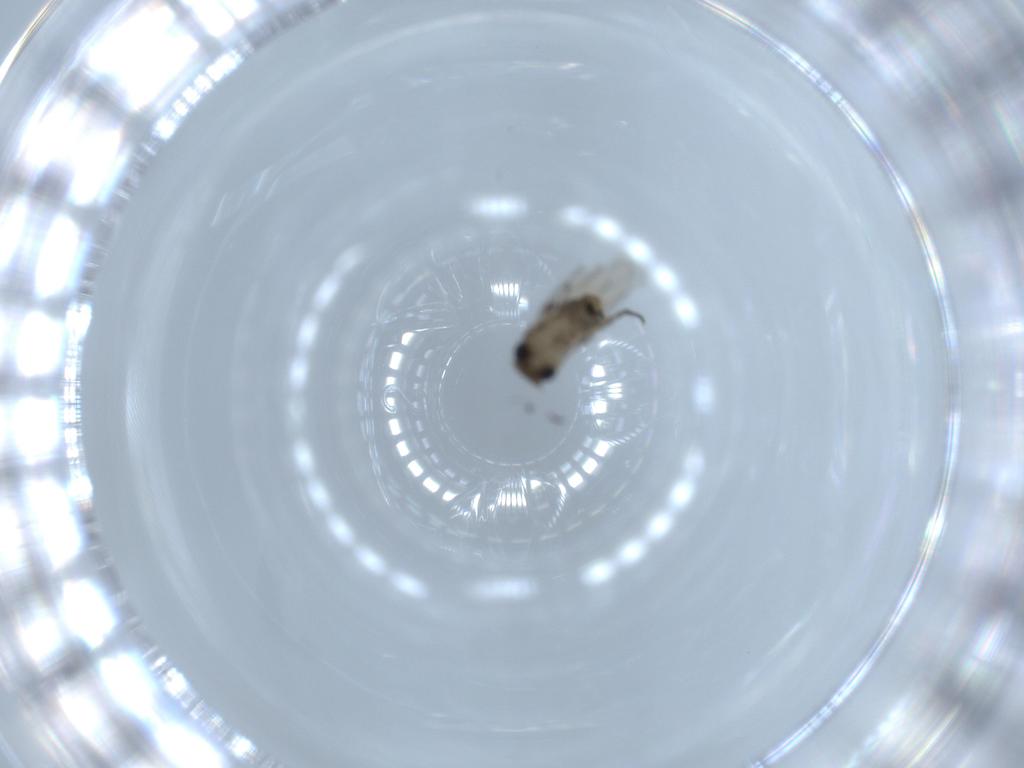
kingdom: Animalia
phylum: Arthropoda
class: Insecta
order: Diptera
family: Phoridae
